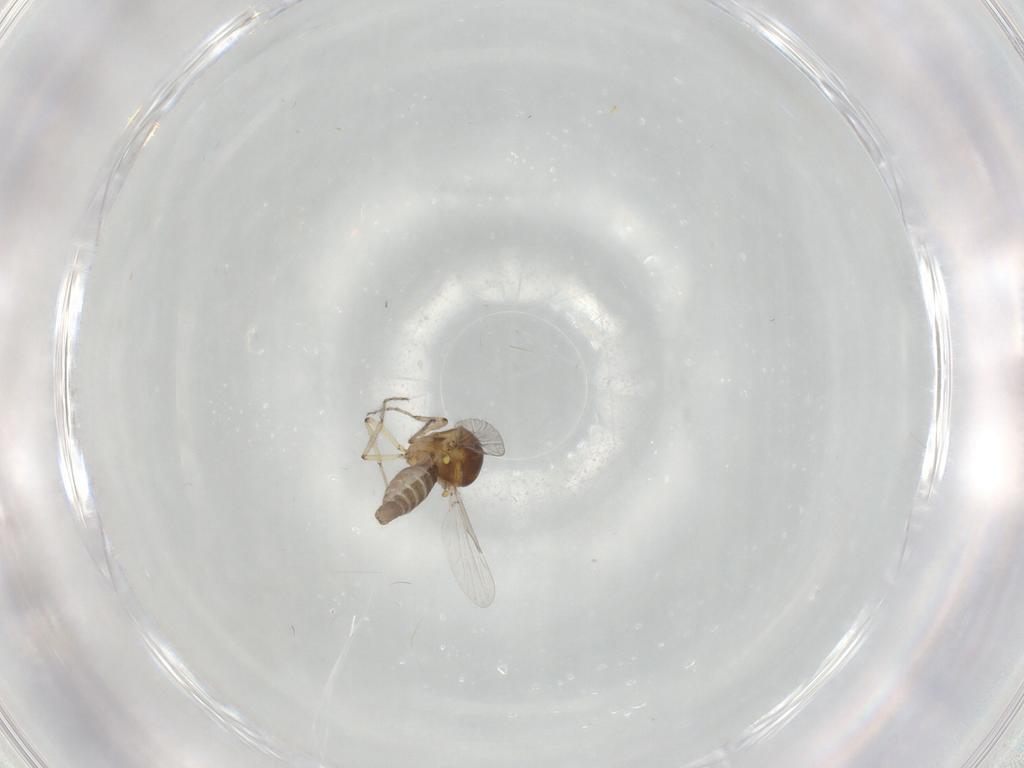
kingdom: Animalia
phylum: Arthropoda
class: Insecta
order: Diptera
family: Ceratopogonidae
